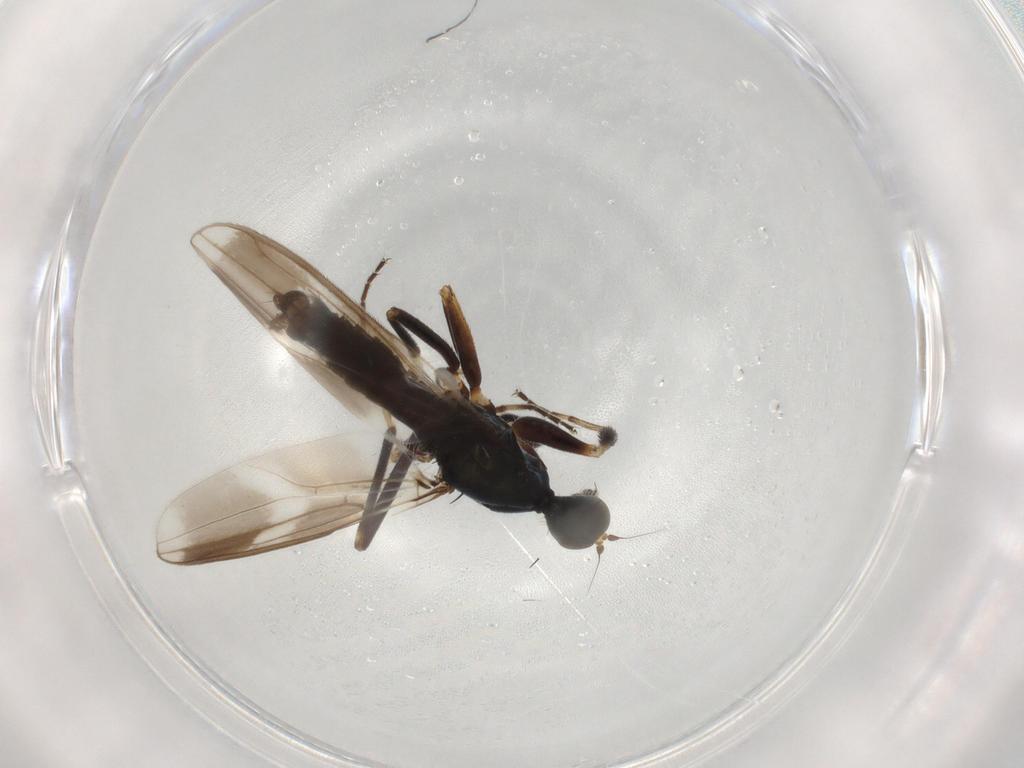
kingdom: Animalia
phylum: Arthropoda
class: Insecta
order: Diptera
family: Hybotidae
